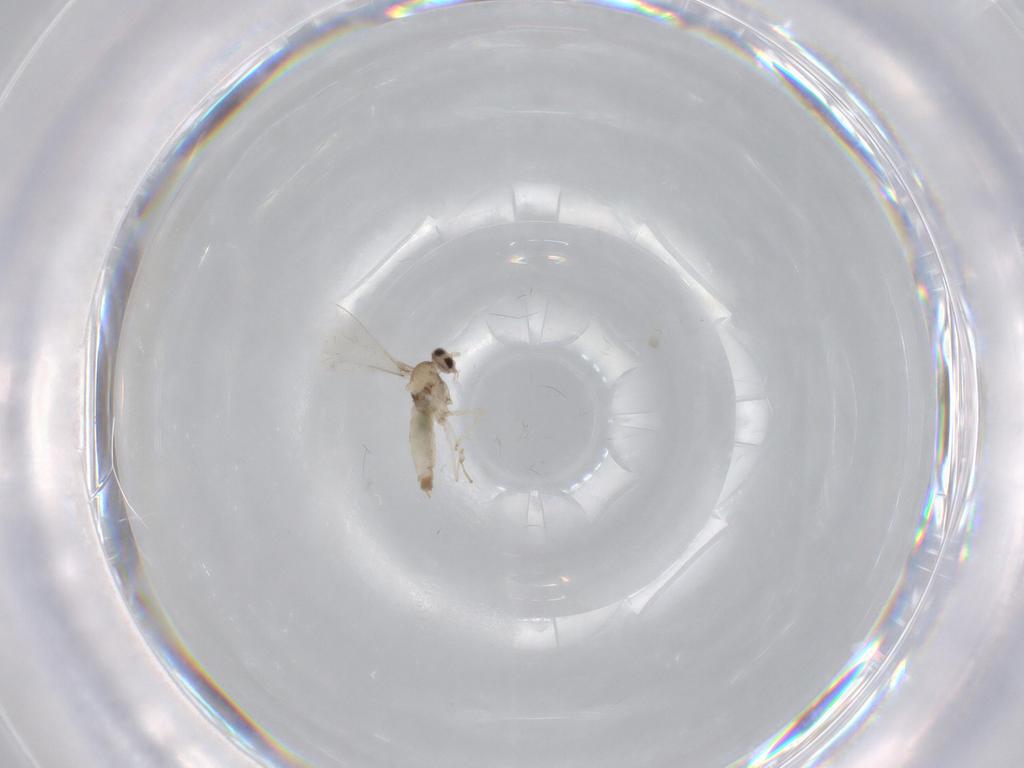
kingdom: Animalia
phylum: Arthropoda
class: Insecta
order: Diptera
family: Cecidomyiidae
